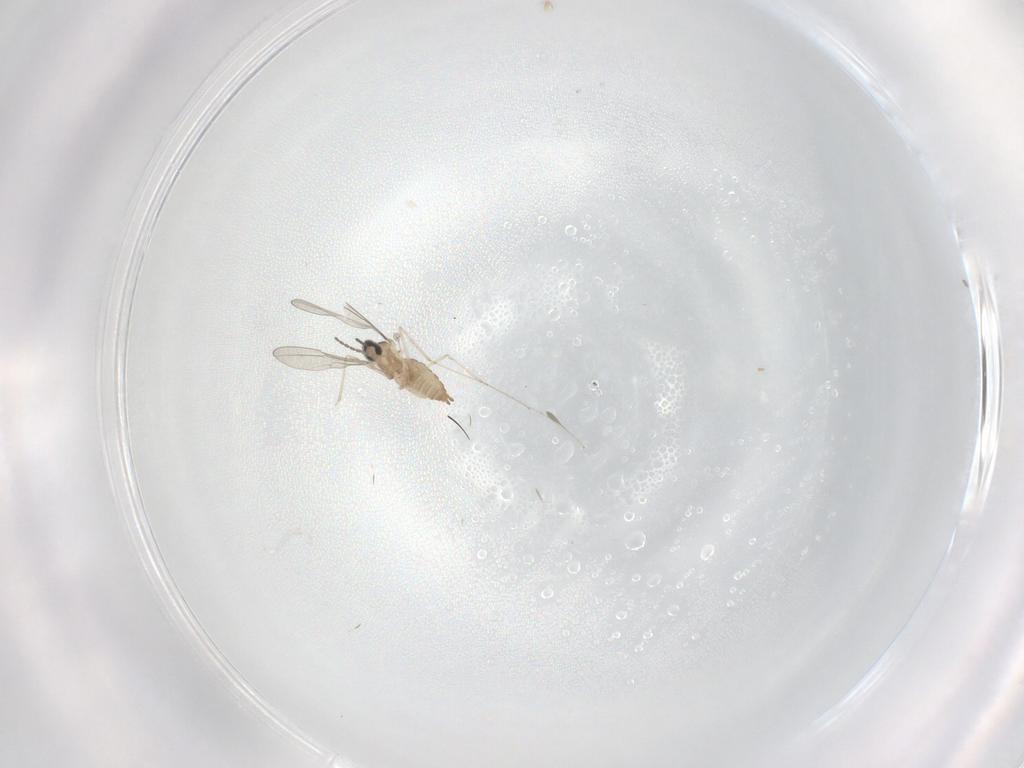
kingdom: Animalia
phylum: Arthropoda
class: Insecta
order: Diptera
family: Cecidomyiidae
